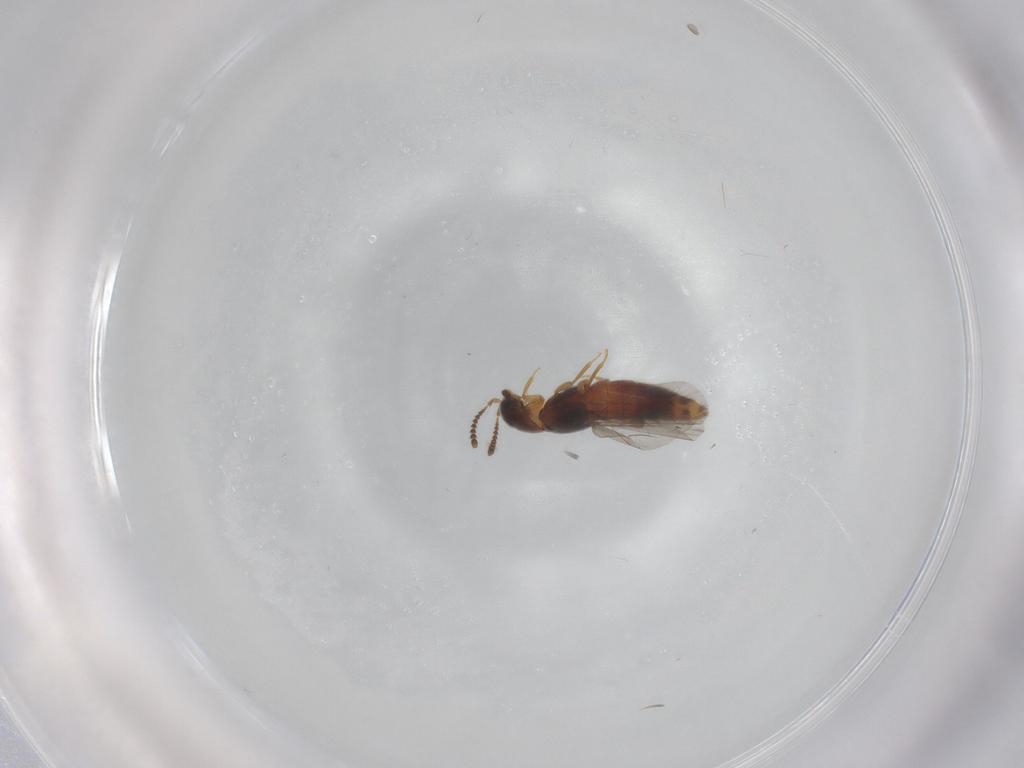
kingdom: Animalia
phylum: Arthropoda
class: Insecta
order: Coleoptera
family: Staphylinidae
